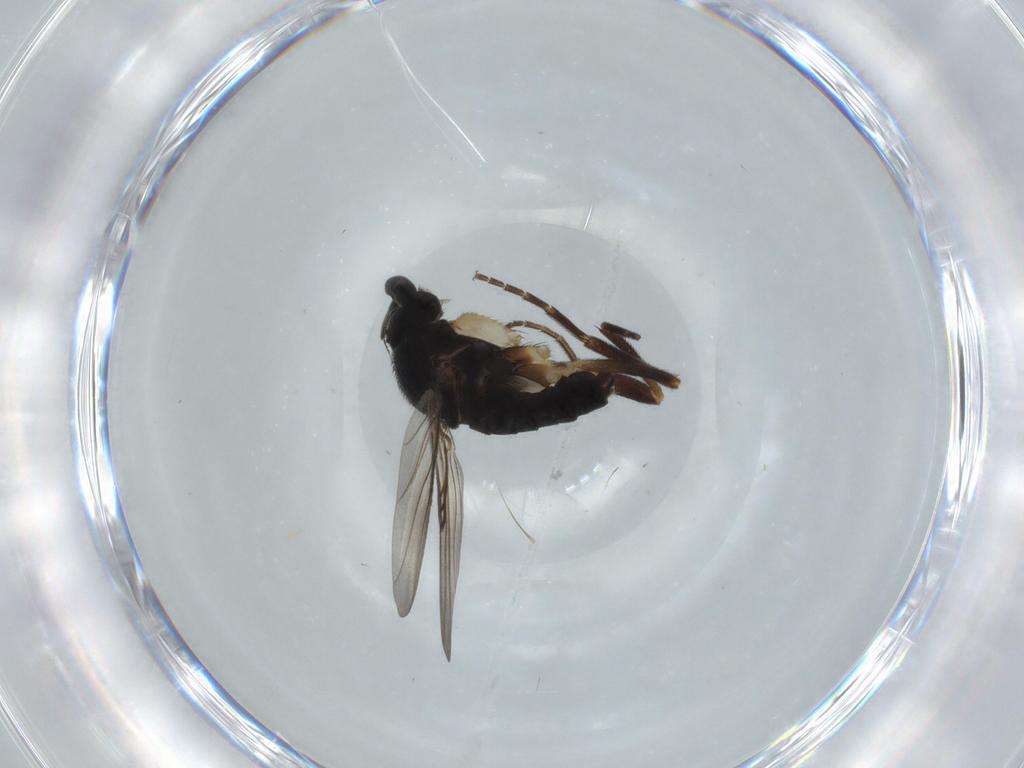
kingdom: Animalia
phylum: Arthropoda
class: Insecta
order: Diptera
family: Phoridae
